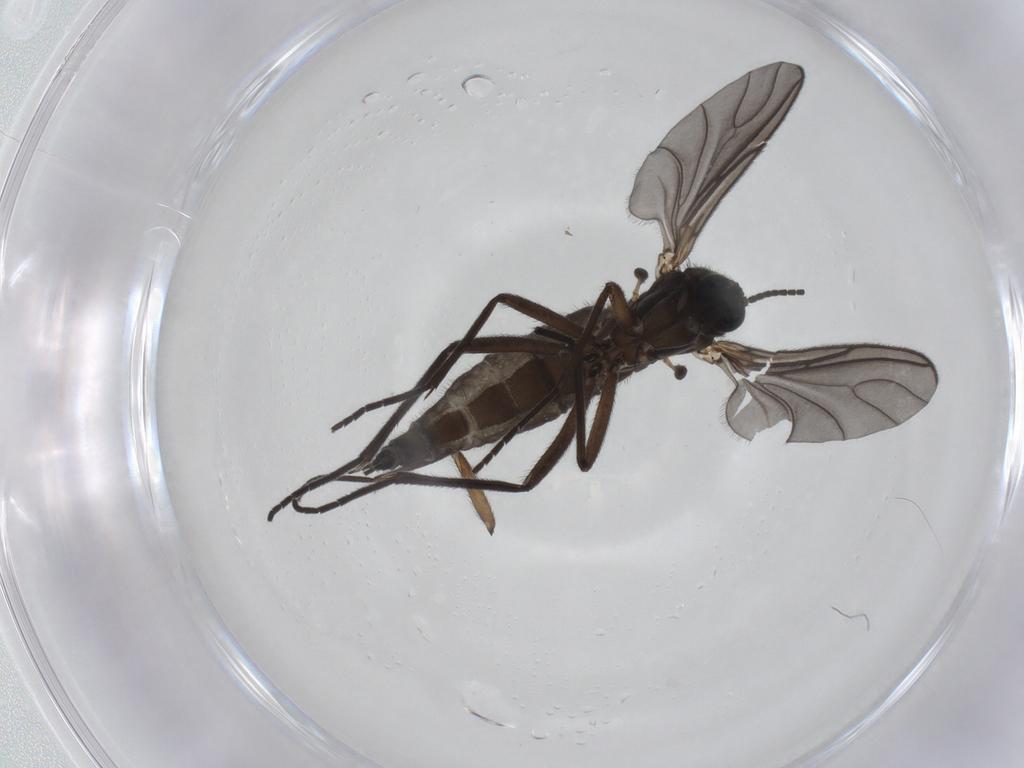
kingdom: Animalia
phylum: Arthropoda
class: Insecta
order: Diptera
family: Sciaridae
